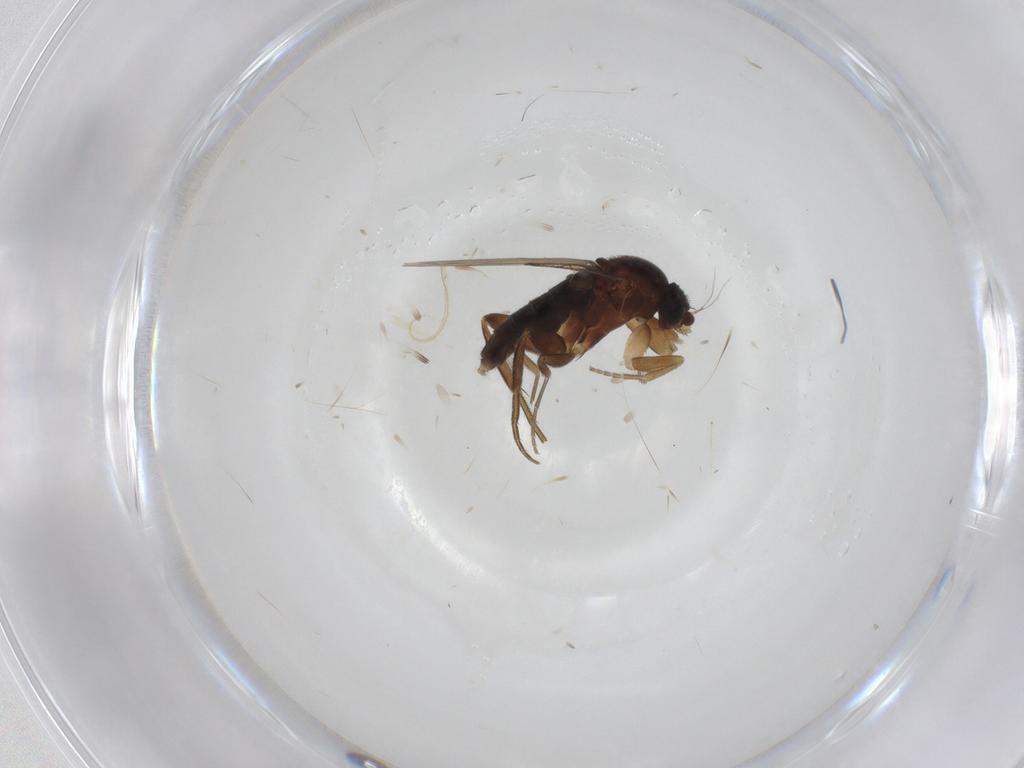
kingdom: Animalia
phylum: Arthropoda
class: Insecta
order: Diptera
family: Phoridae
